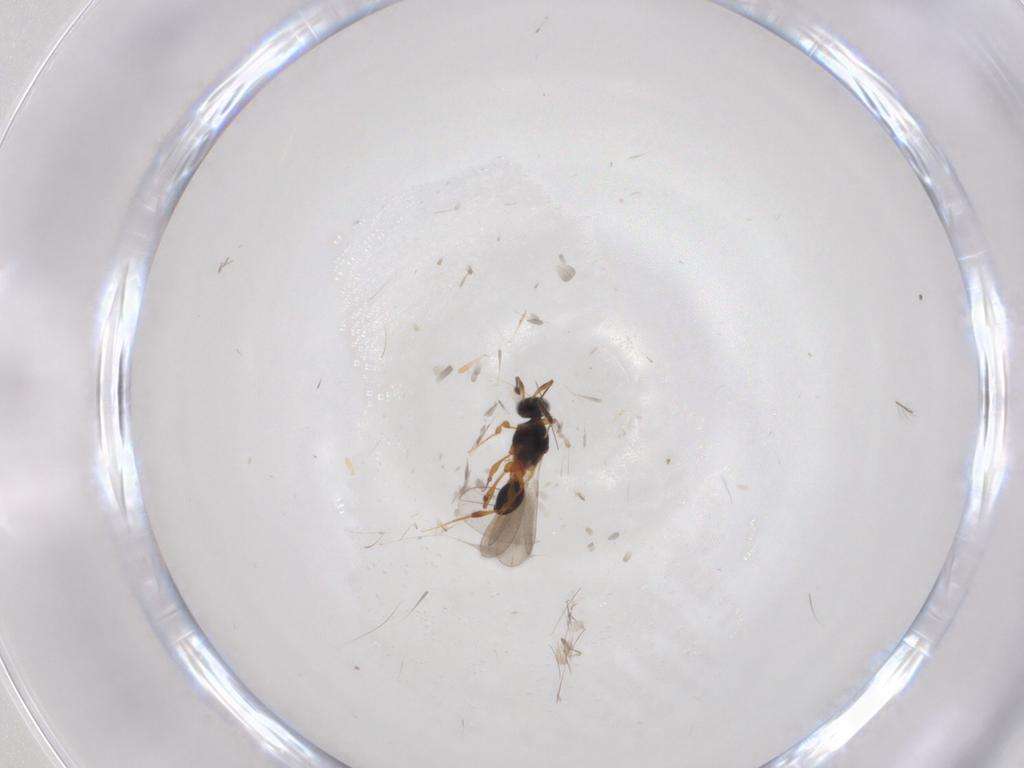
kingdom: Animalia
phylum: Arthropoda
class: Insecta
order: Hymenoptera
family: Platygastridae
